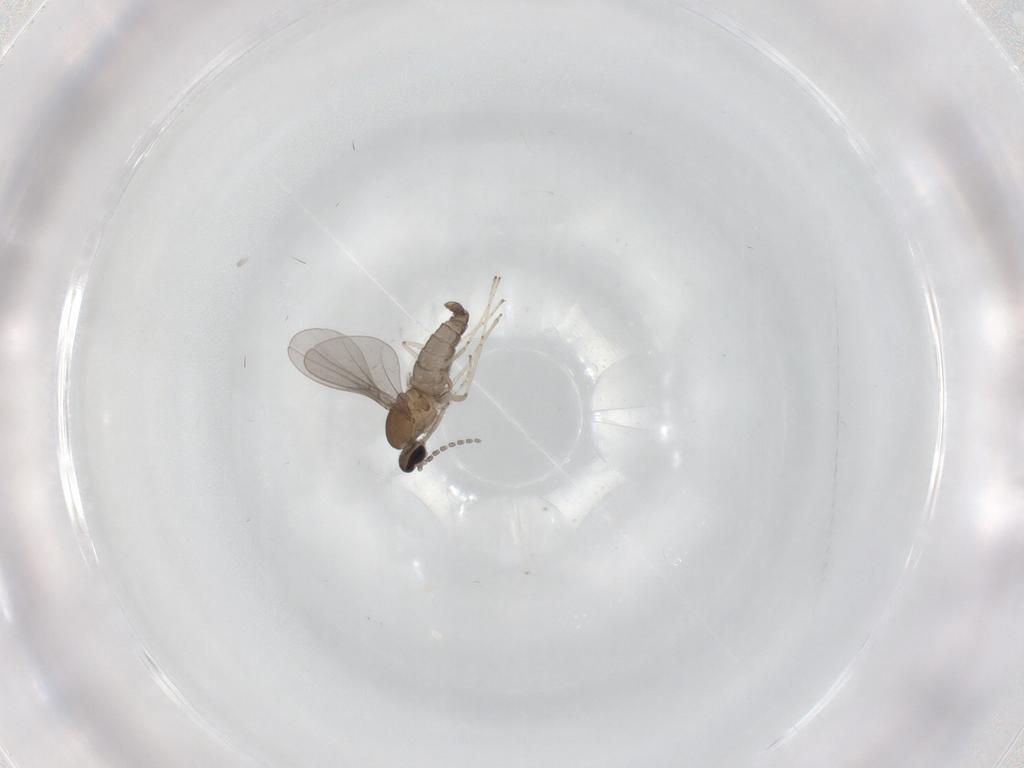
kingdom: Animalia
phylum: Arthropoda
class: Insecta
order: Diptera
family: Cecidomyiidae
